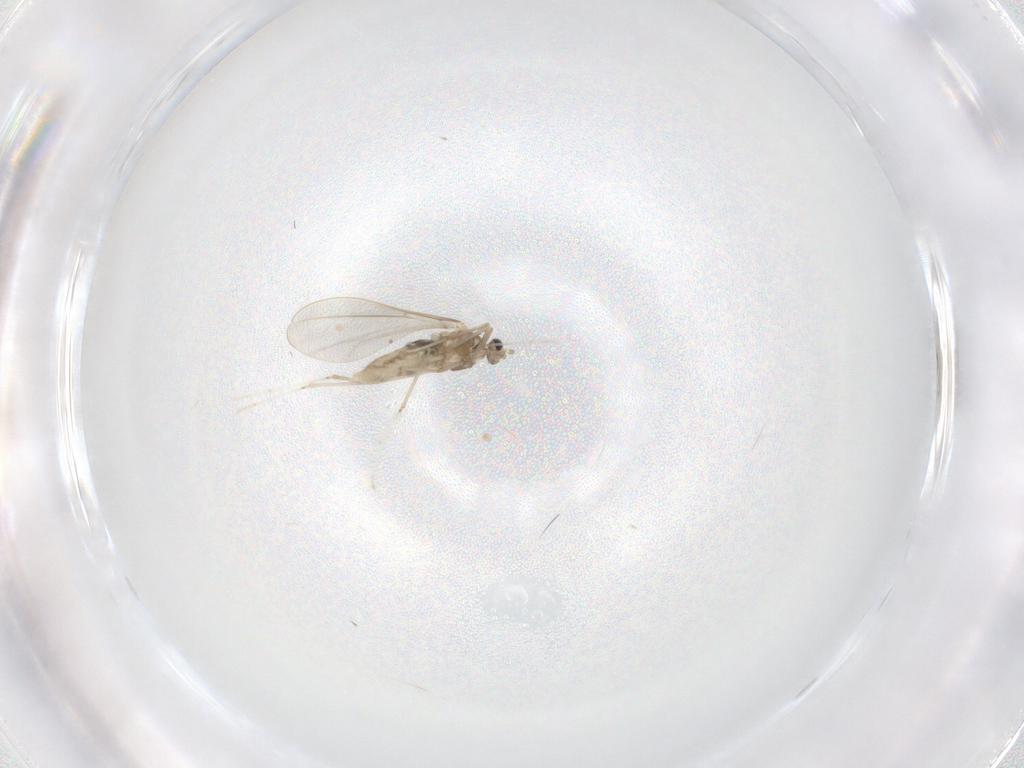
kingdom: Animalia
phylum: Arthropoda
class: Insecta
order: Diptera
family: Cecidomyiidae
